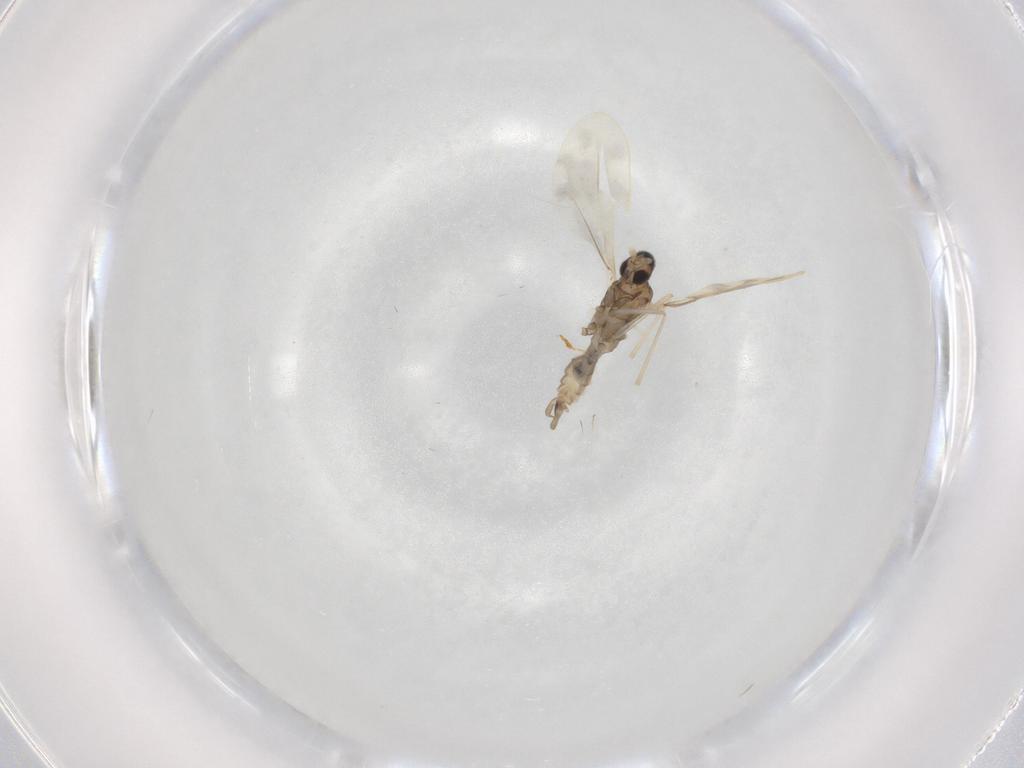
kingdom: Animalia
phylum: Arthropoda
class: Insecta
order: Diptera
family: Cecidomyiidae
